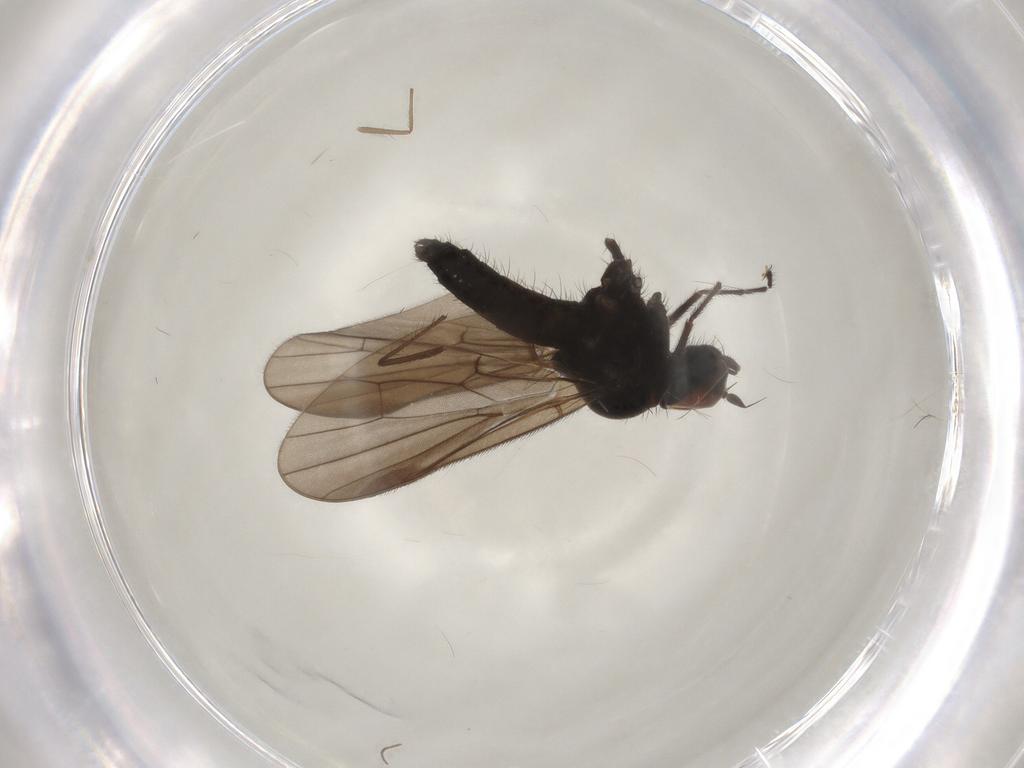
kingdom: Animalia
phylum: Arthropoda
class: Insecta
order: Diptera
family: Hybotidae
